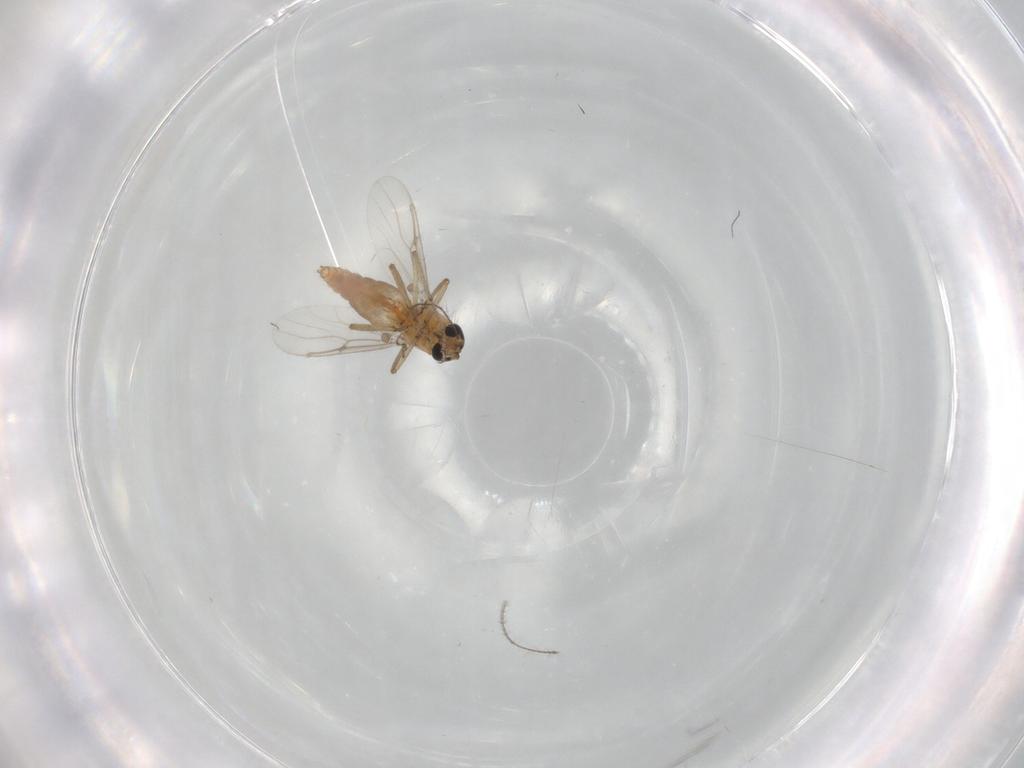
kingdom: Animalia
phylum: Arthropoda
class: Insecta
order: Diptera
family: Ceratopogonidae
